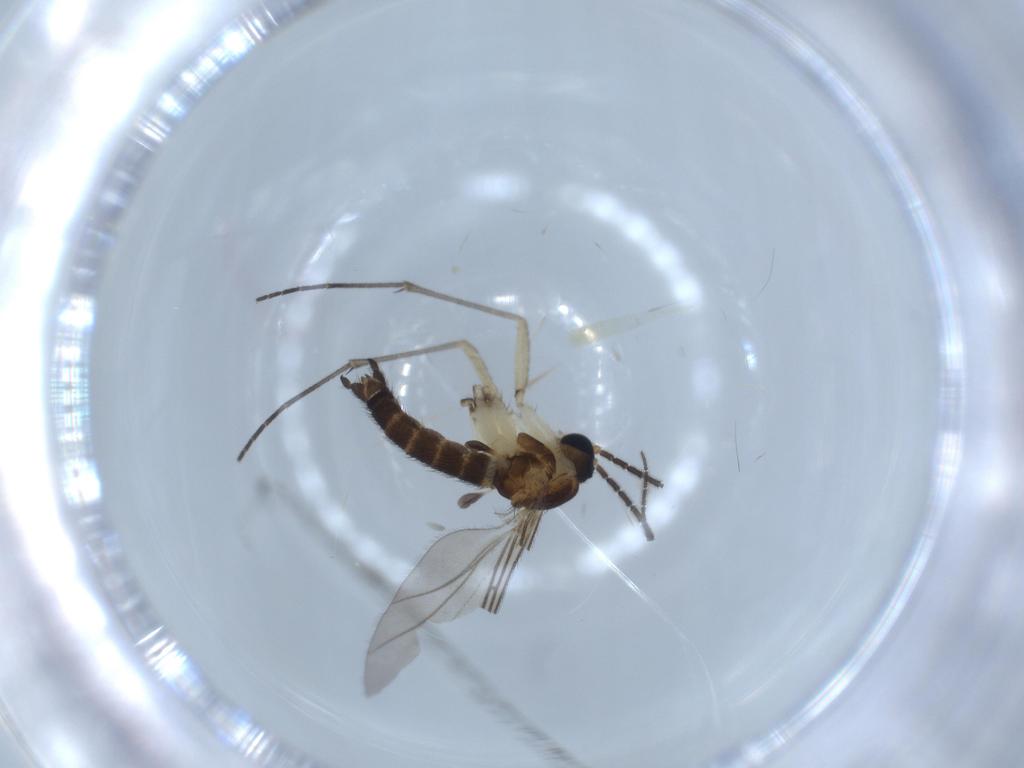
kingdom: Animalia
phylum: Arthropoda
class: Insecta
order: Diptera
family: Sciaridae
